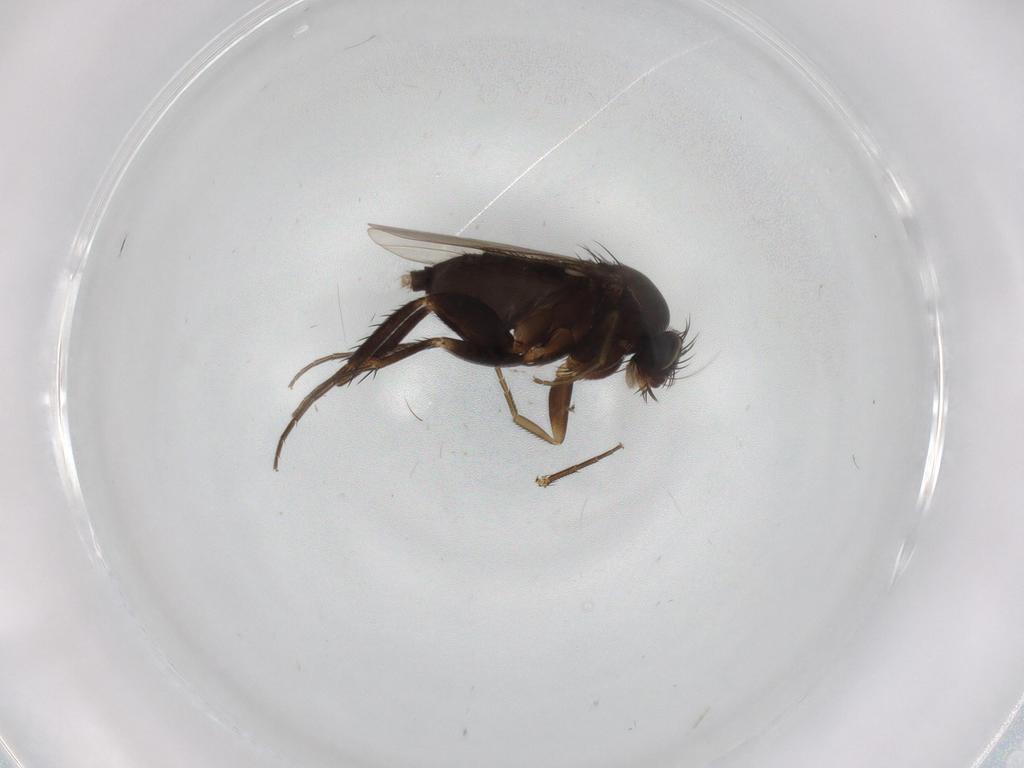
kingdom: Animalia
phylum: Arthropoda
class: Insecta
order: Diptera
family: Phoridae
